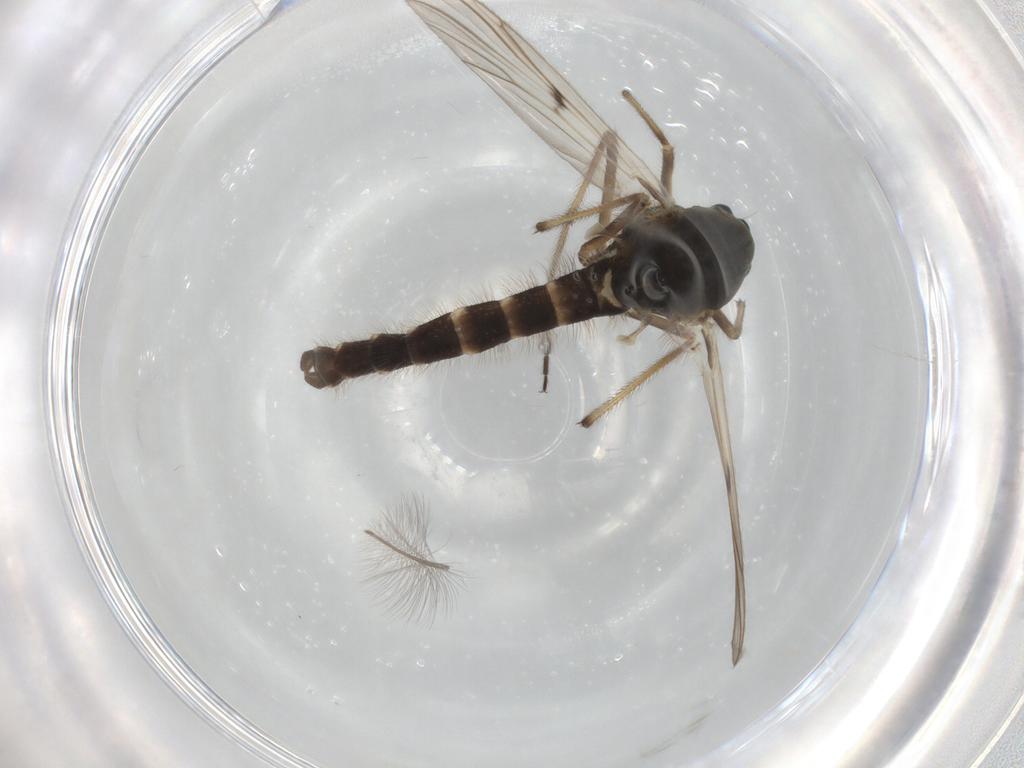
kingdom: Animalia
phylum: Arthropoda
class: Insecta
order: Diptera
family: Chironomidae
